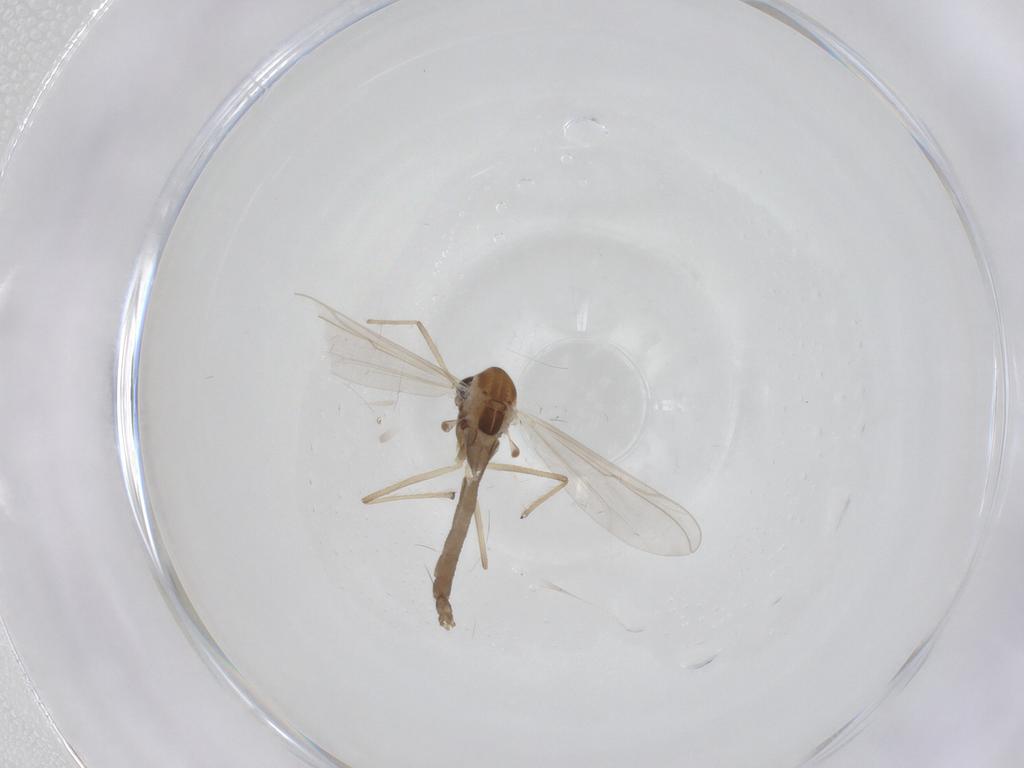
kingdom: Animalia
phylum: Arthropoda
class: Insecta
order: Diptera
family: Chironomidae
